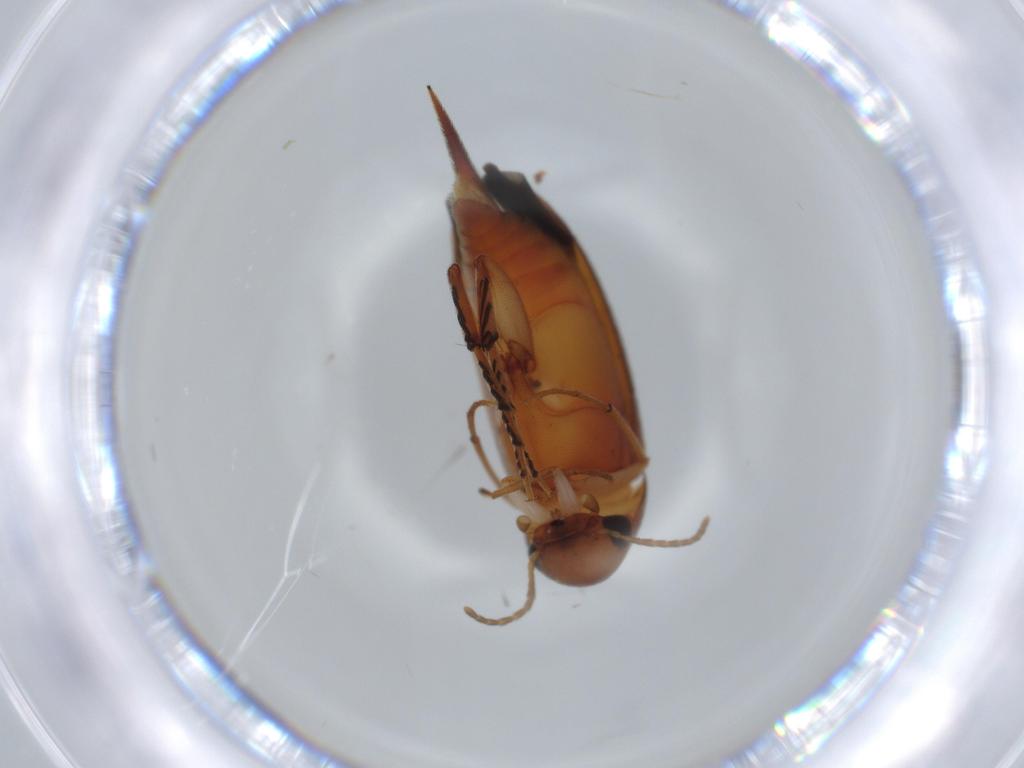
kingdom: Animalia
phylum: Arthropoda
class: Insecta
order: Coleoptera
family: Mordellidae
